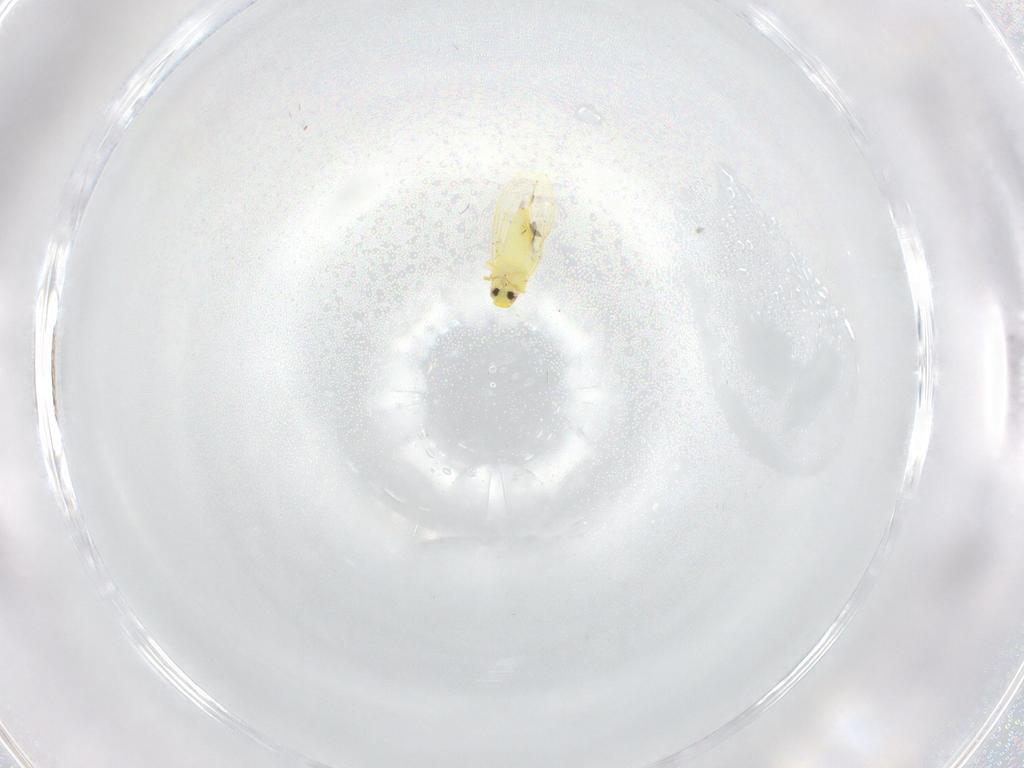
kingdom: Animalia
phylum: Arthropoda
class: Insecta
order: Hemiptera
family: Aleyrodidae
